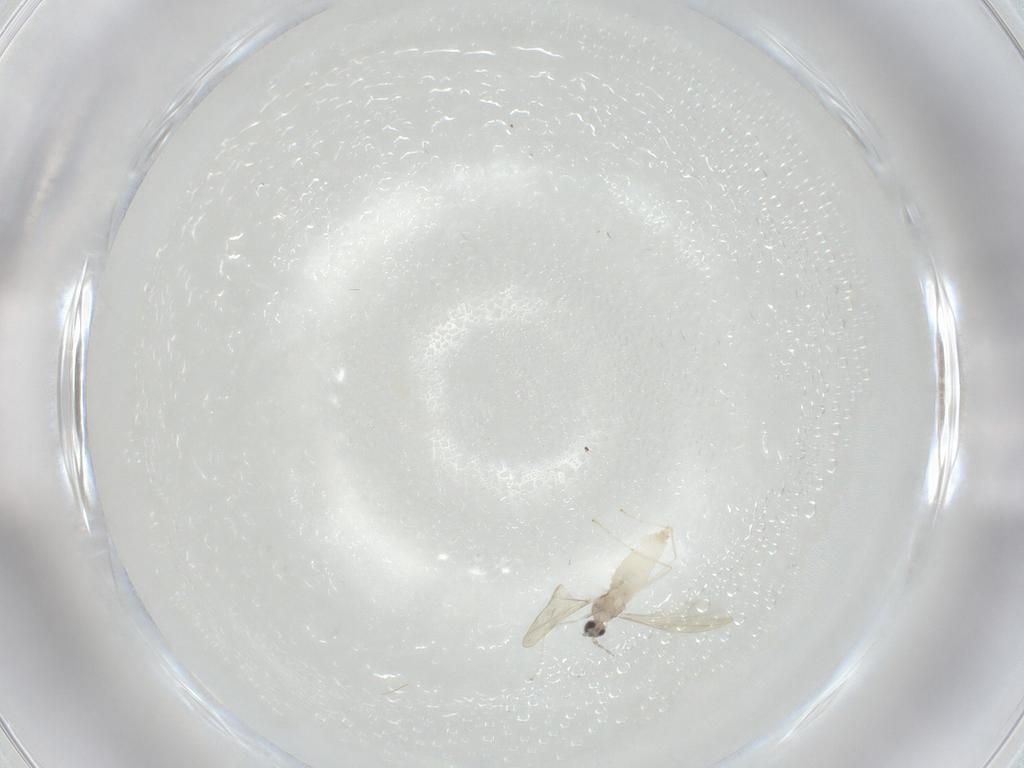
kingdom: Animalia
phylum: Arthropoda
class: Insecta
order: Diptera
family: Cecidomyiidae
